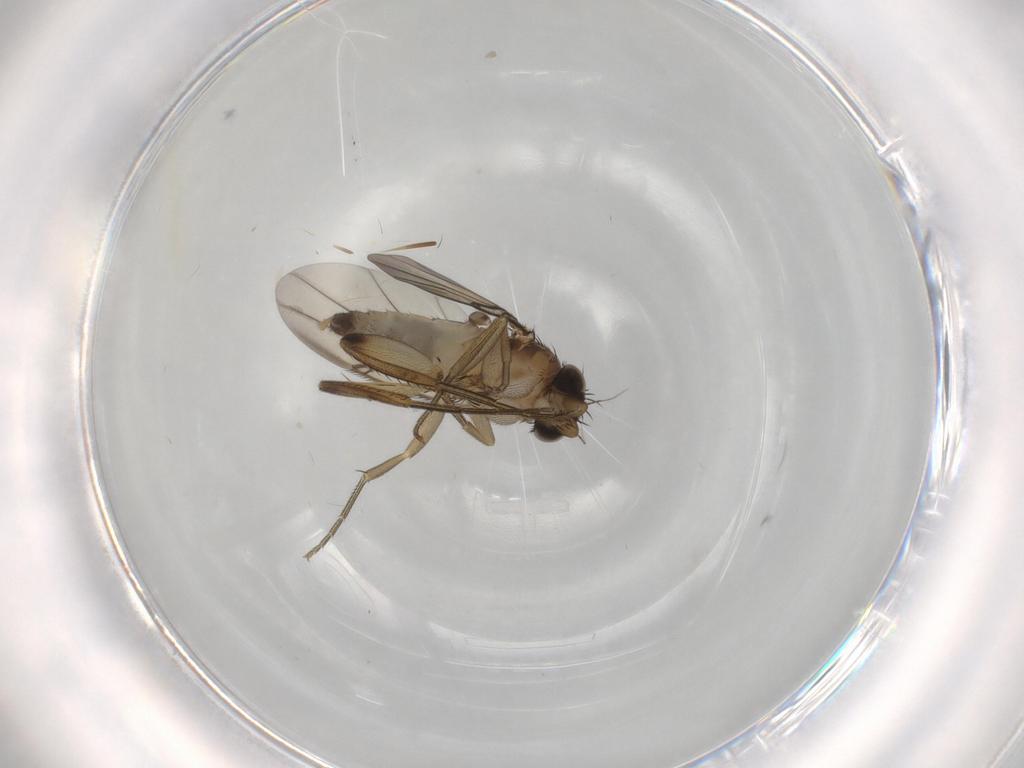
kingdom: Animalia
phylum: Arthropoda
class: Insecta
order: Diptera
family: Phoridae
